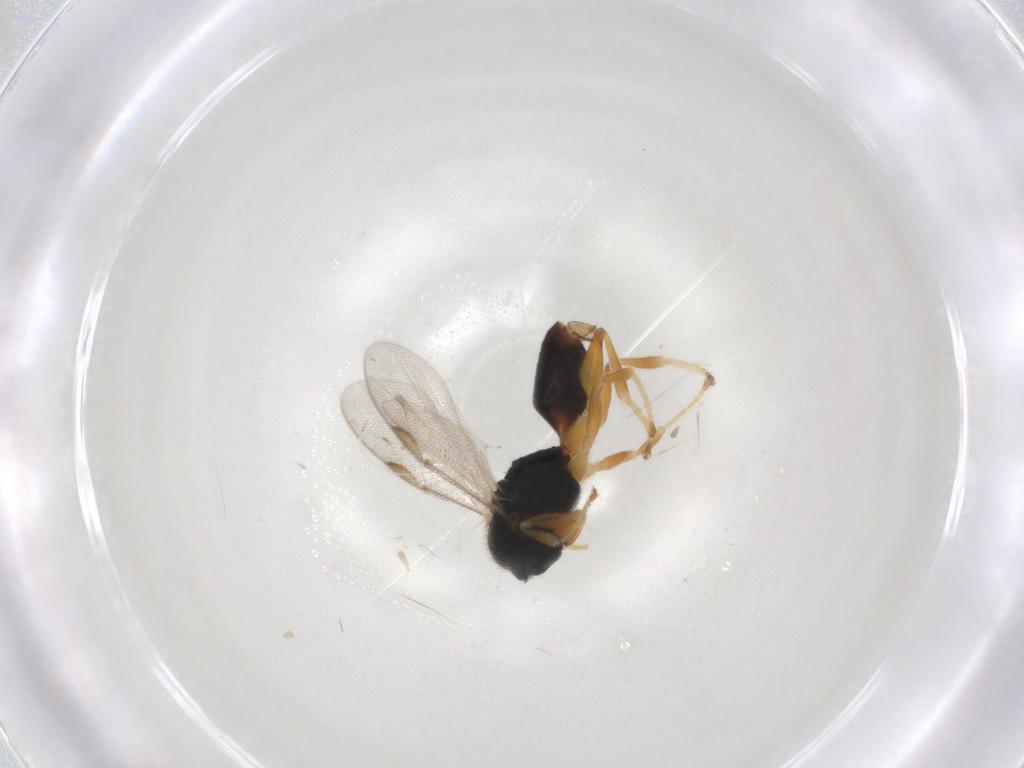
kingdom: Animalia
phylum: Arthropoda
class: Insecta
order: Hymenoptera
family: Dryinidae
